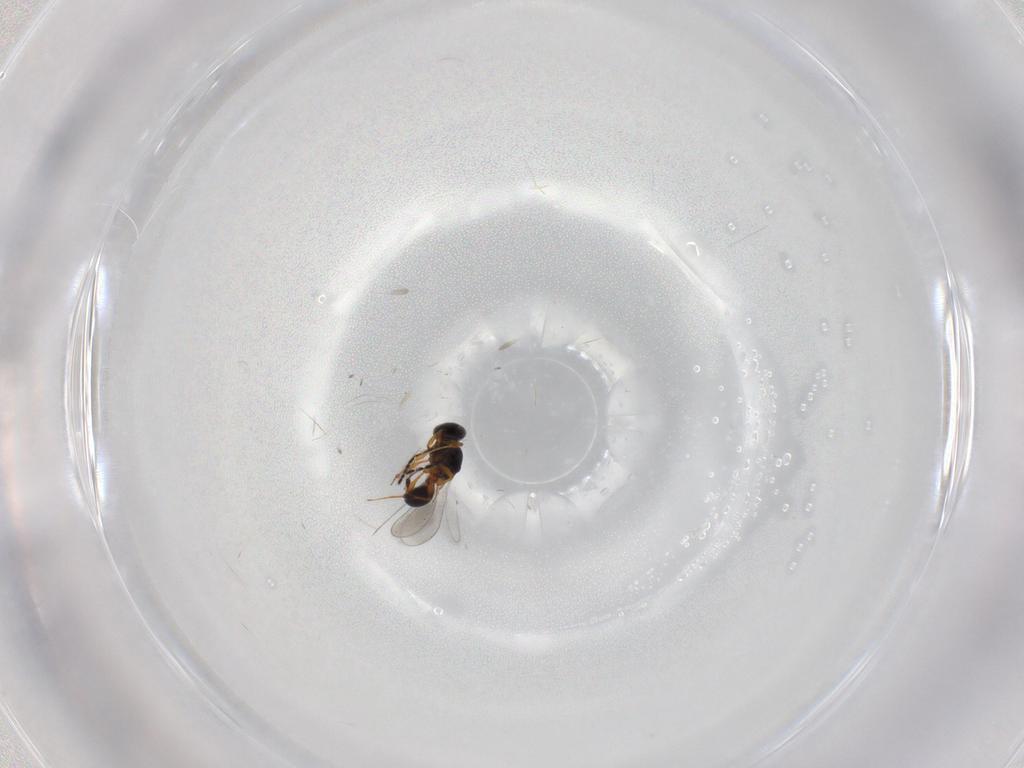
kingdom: Animalia
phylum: Arthropoda
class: Insecta
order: Hymenoptera
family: Platygastridae
